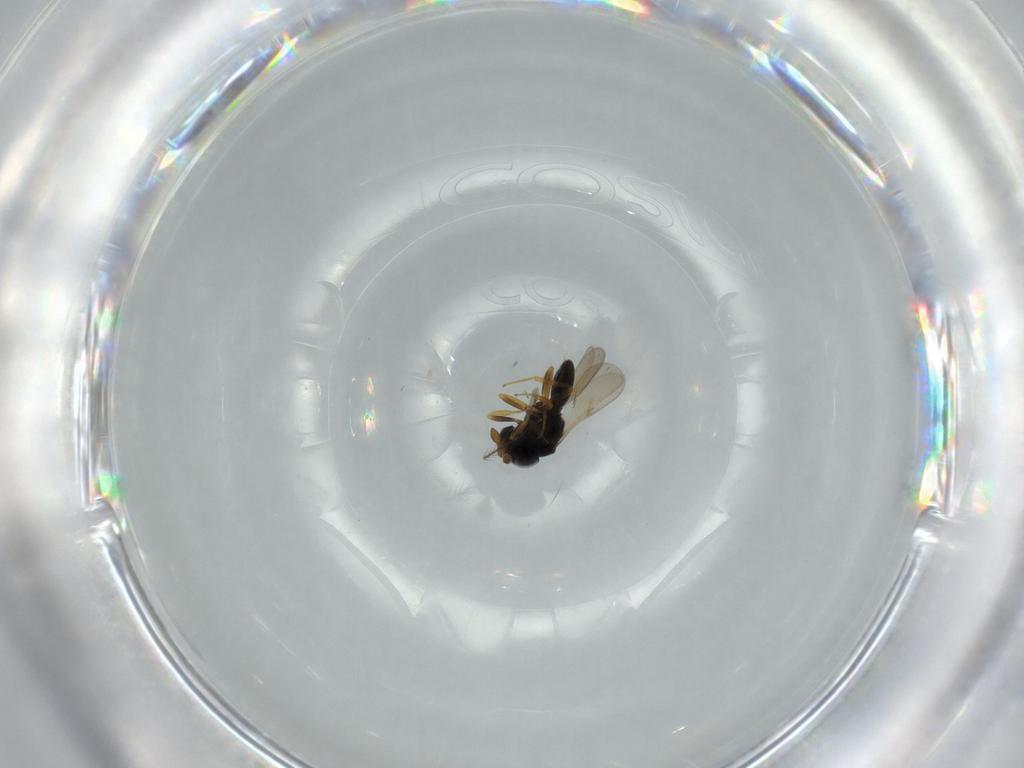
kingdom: Animalia
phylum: Arthropoda
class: Insecta
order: Hymenoptera
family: Scelionidae
